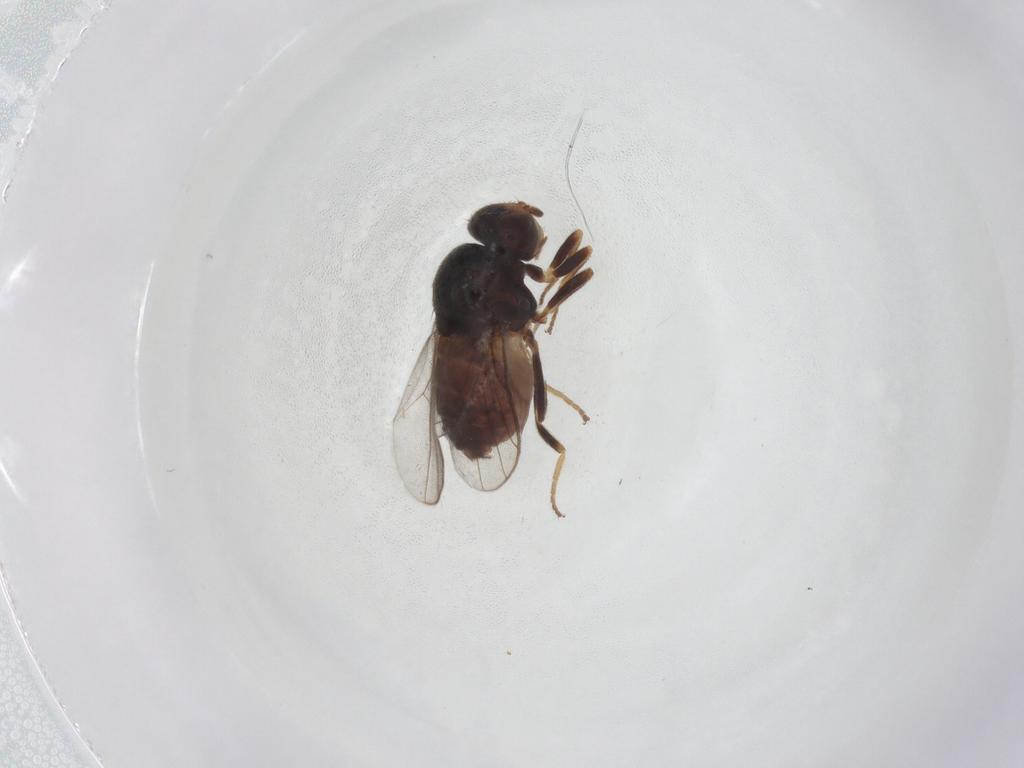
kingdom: Animalia
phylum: Arthropoda
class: Insecta
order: Diptera
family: Chloropidae
